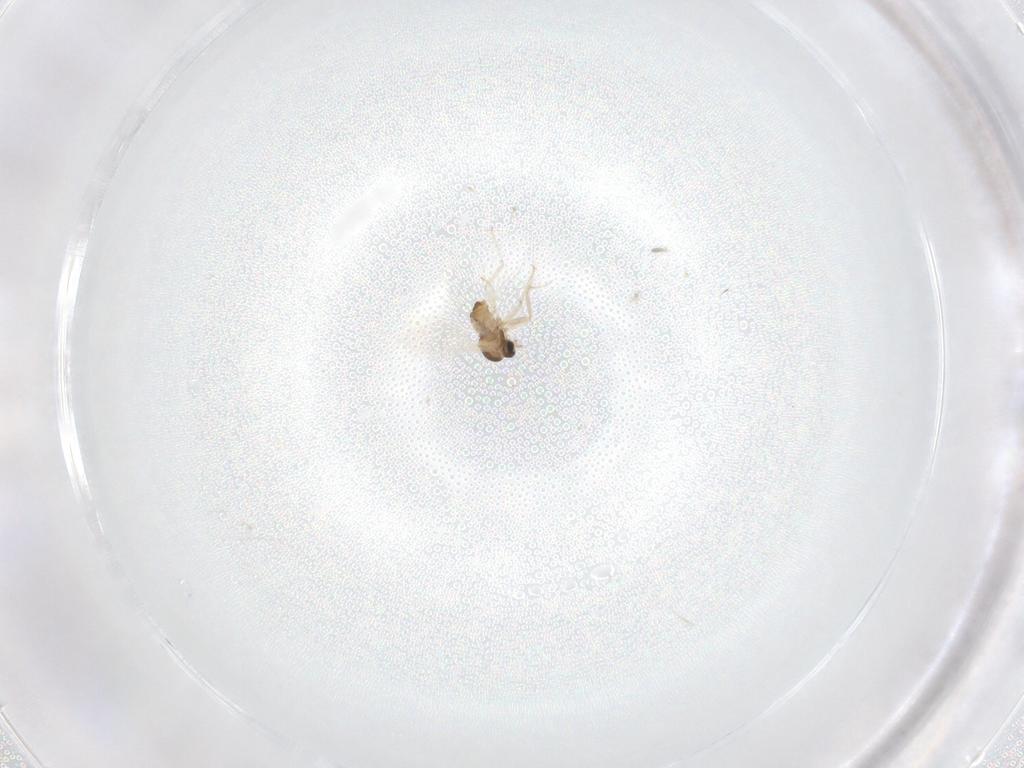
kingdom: Animalia
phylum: Arthropoda
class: Insecta
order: Diptera
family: Cecidomyiidae
